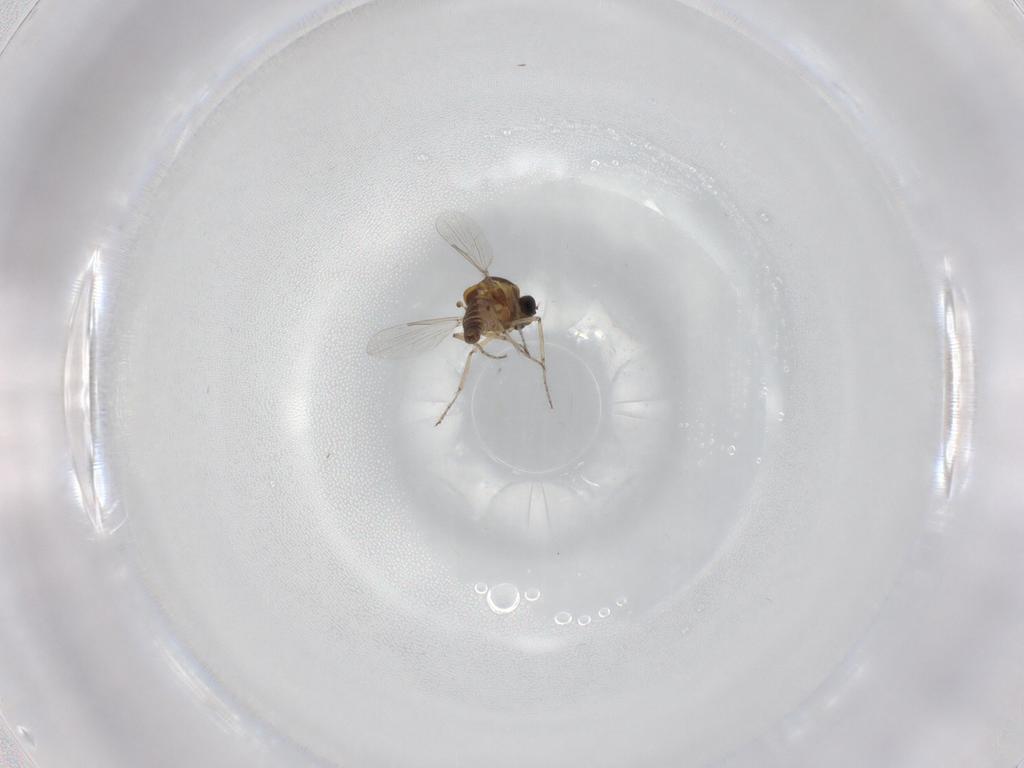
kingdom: Animalia
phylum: Arthropoda
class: Insecta
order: Diptera
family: Ceratopogonidae
